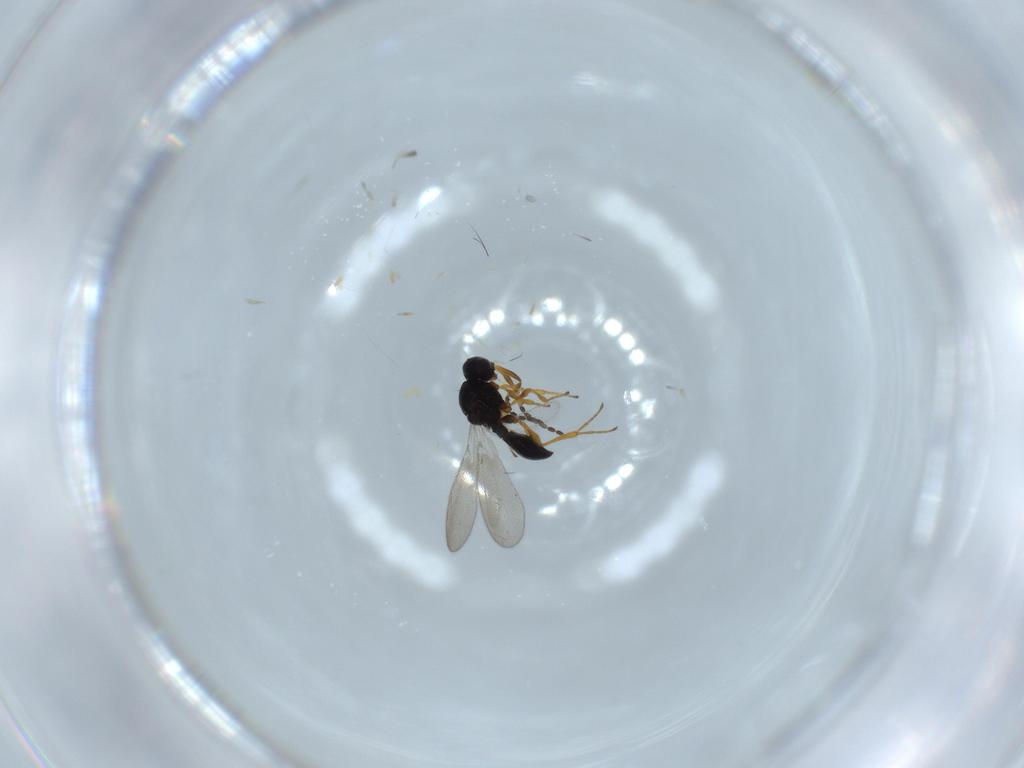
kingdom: Animalia
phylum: Arthropoda
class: Insecta
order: Diptera
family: Mythicomyiidae
